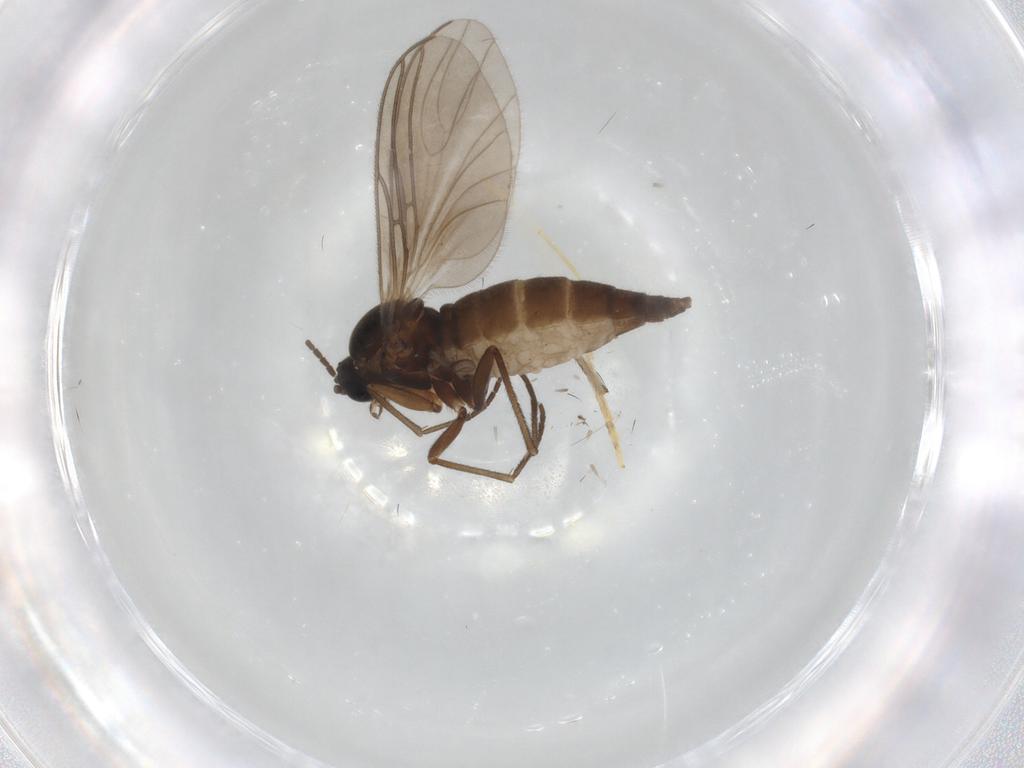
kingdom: Animalia
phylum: Arthropoda
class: Insecta
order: Diptera
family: Sciaridae
